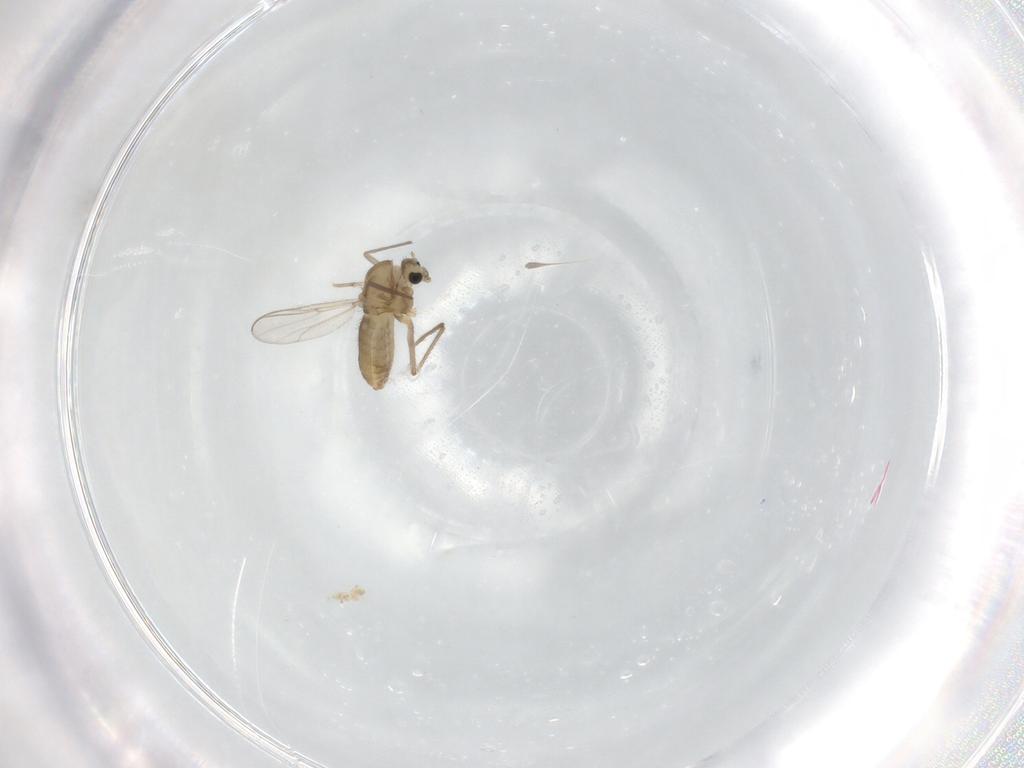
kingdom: Animalia
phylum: Arthropoda
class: Insecta
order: Diptera
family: Chironomidae
